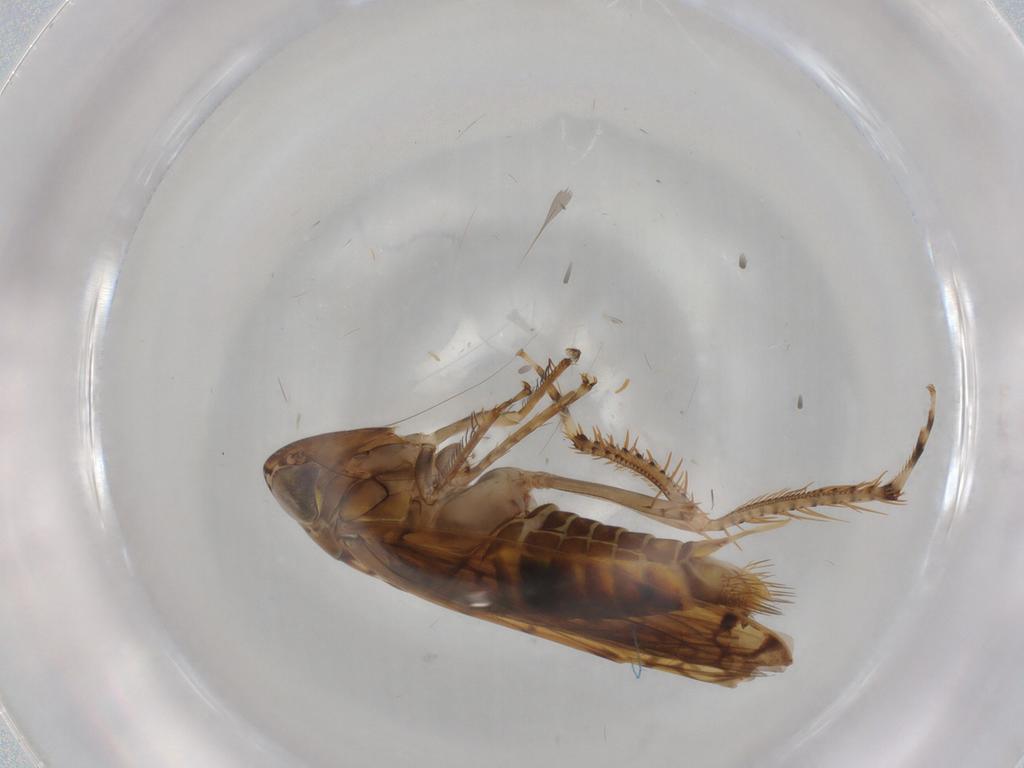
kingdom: Animalia
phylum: Arthropoda
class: Insecta
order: Hemiptera
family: Cicadellidae
